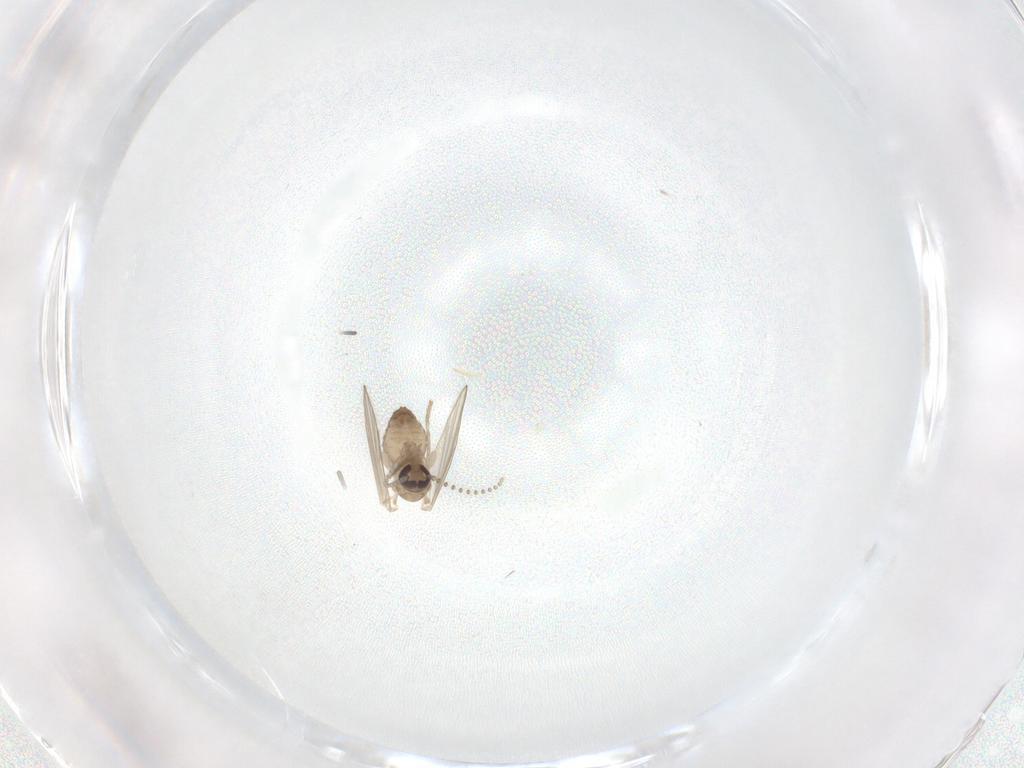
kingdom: Animalia
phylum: Arthropoda
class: Insecta
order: Diptera
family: Psychodidae
